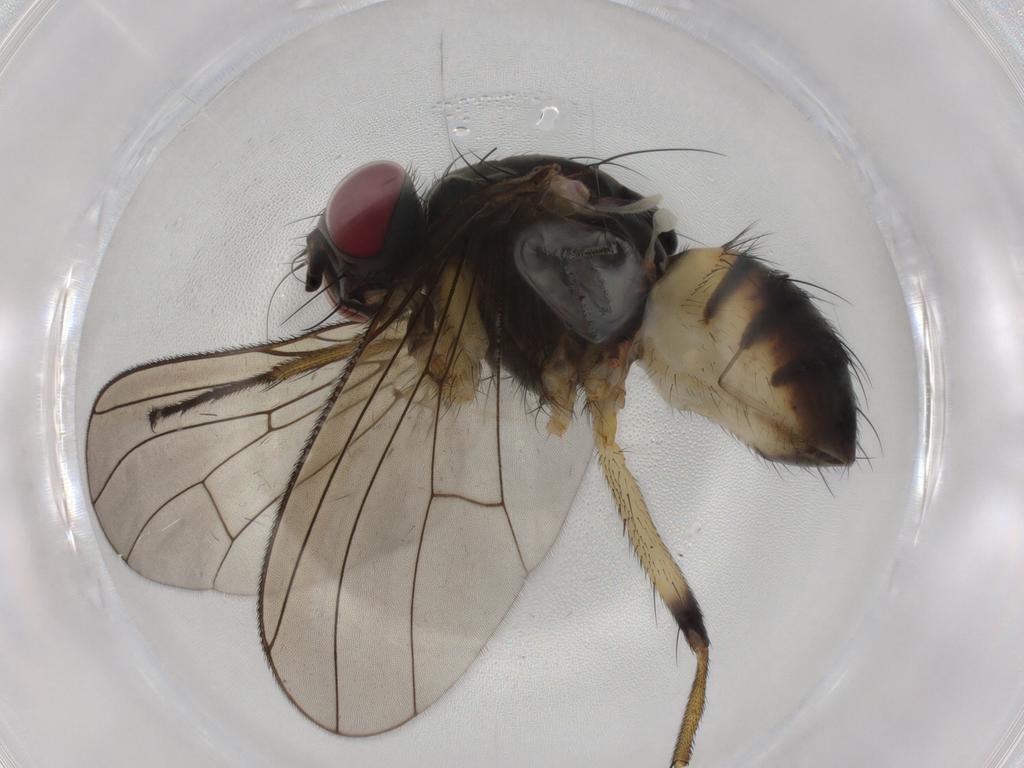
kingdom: Animalia
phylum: Arthropoda
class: Insecta
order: Diptera
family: Muscidae
